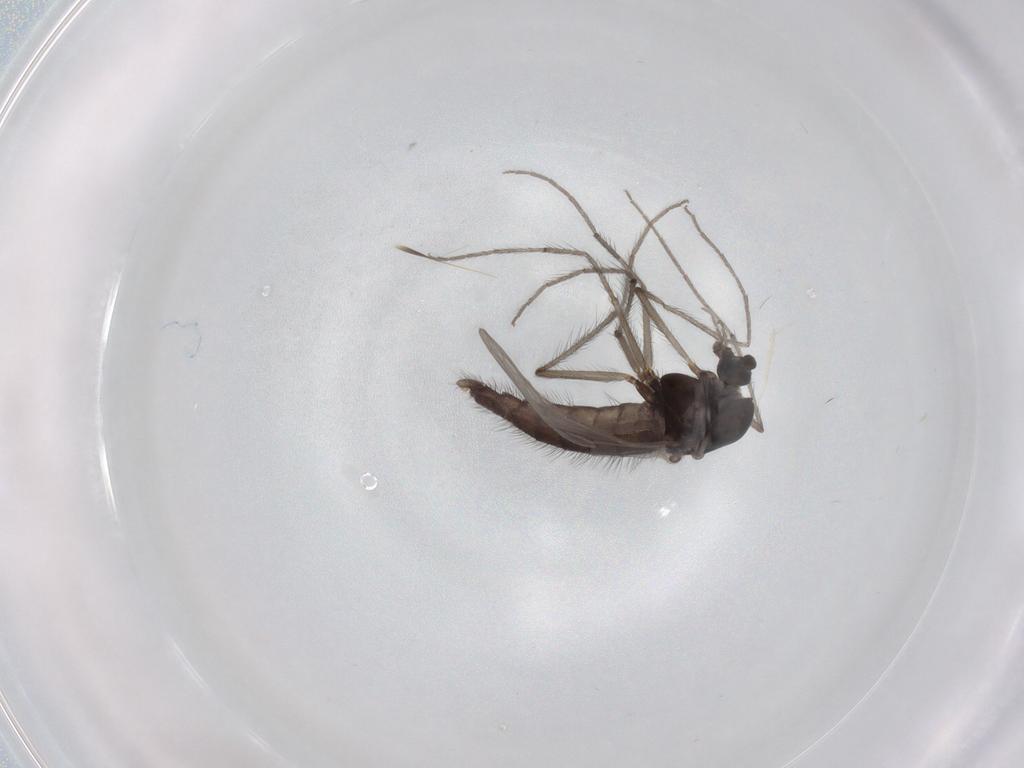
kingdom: Animalia
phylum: Arthropoda
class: Insecta
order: Diptera
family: Chironomidae
